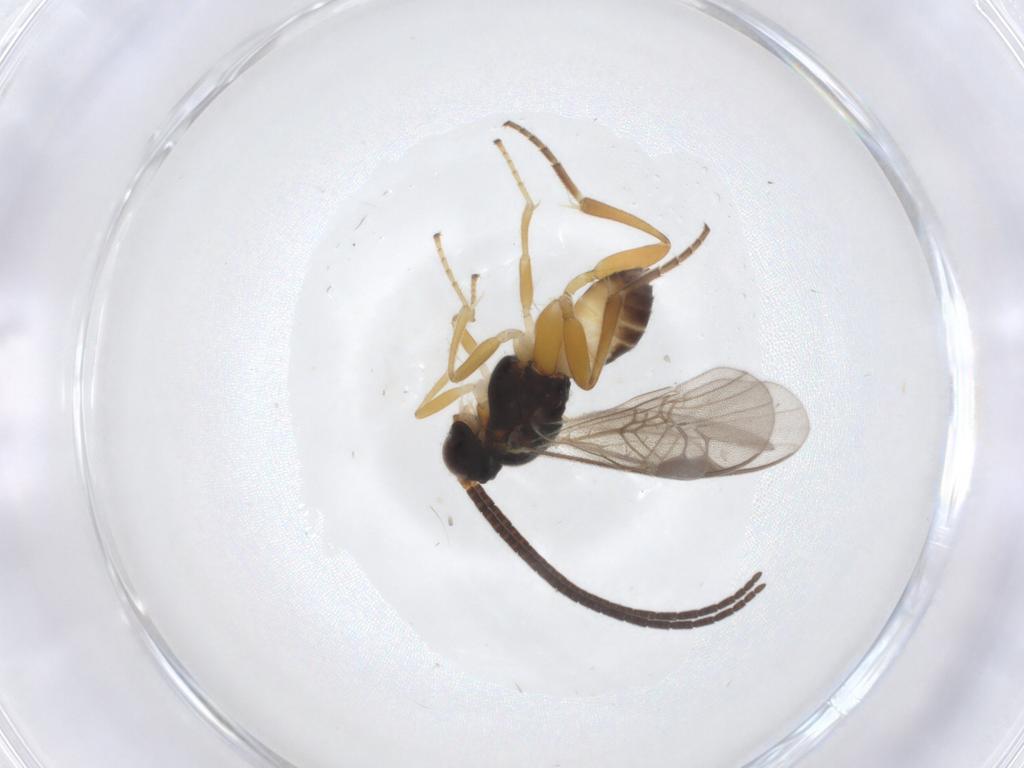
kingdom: Animalia
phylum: Arthropoda
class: Insecta
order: Hymenoptera
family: Braconidae
